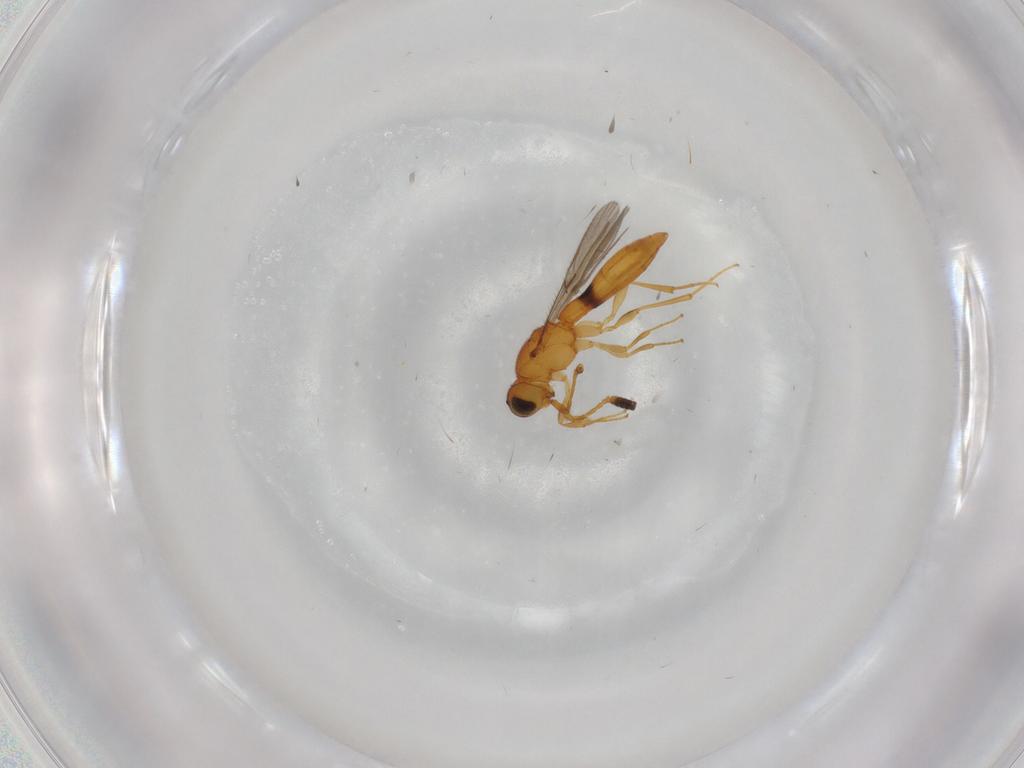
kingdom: Animalia
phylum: Arthropoda
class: Insecta
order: Hymenoptera
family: Scelionidae
